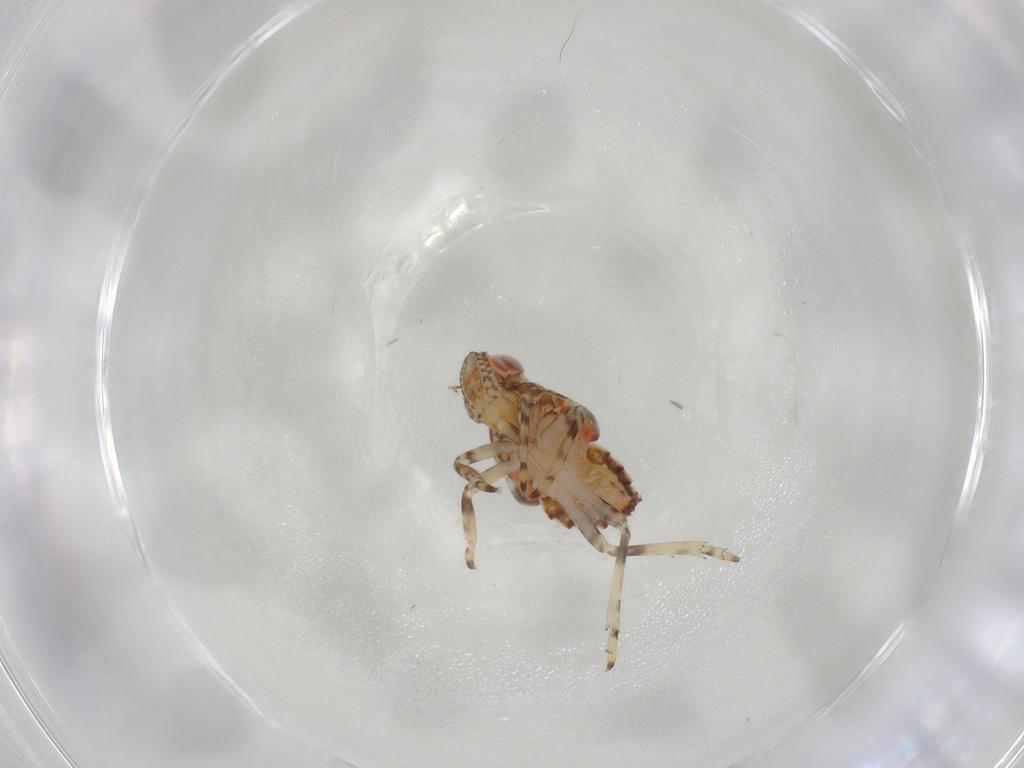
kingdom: Animalia
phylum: Arthropoda
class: Insecta
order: Hemiptera
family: Tropiduchidae
